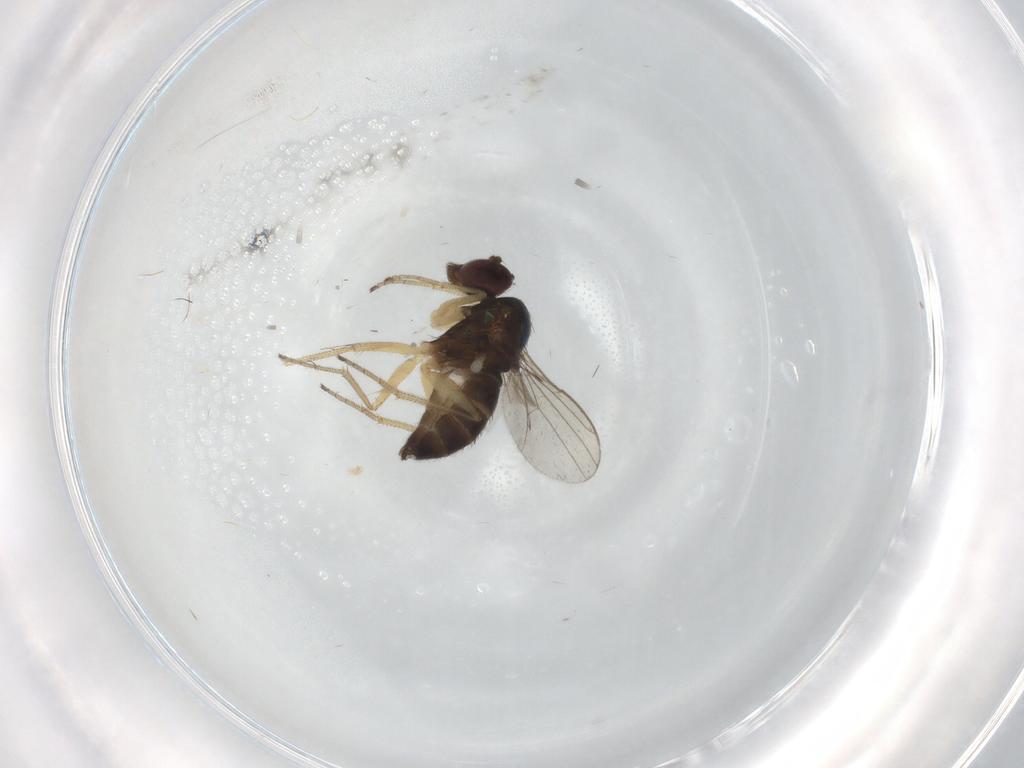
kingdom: Animalia
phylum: Arthropoda
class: Insecta
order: Diptera
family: Dolichopodidae
